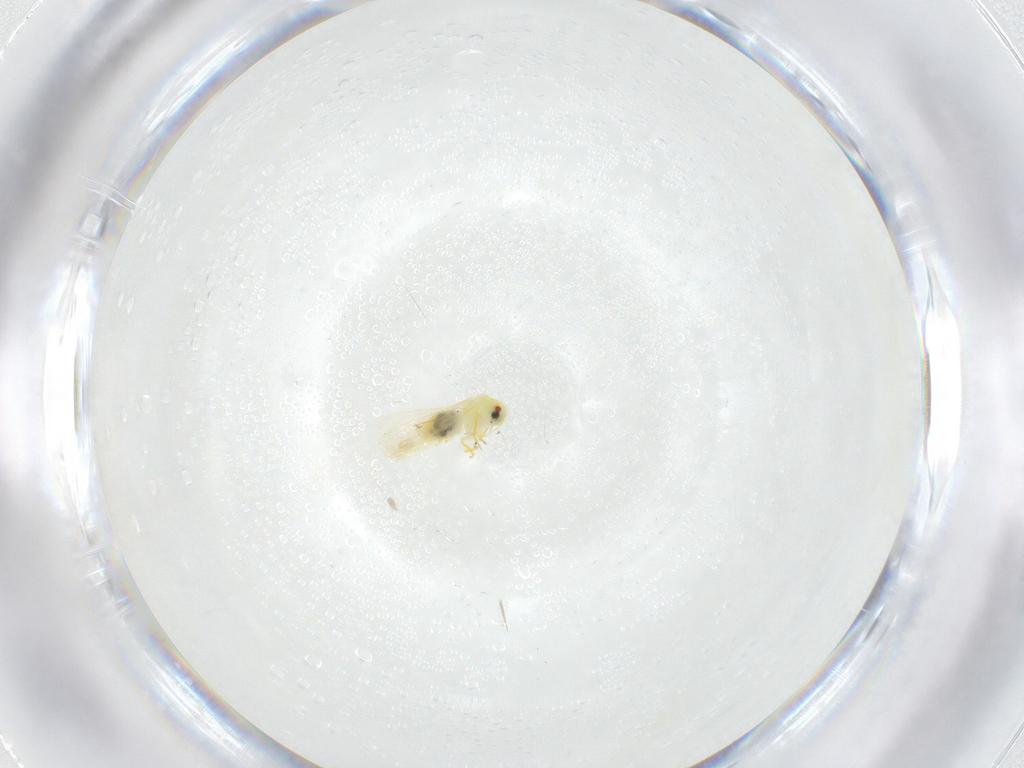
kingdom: Animalia
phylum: Arthropoda
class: Insecta
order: Hemiptera
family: Aleyrodidae
